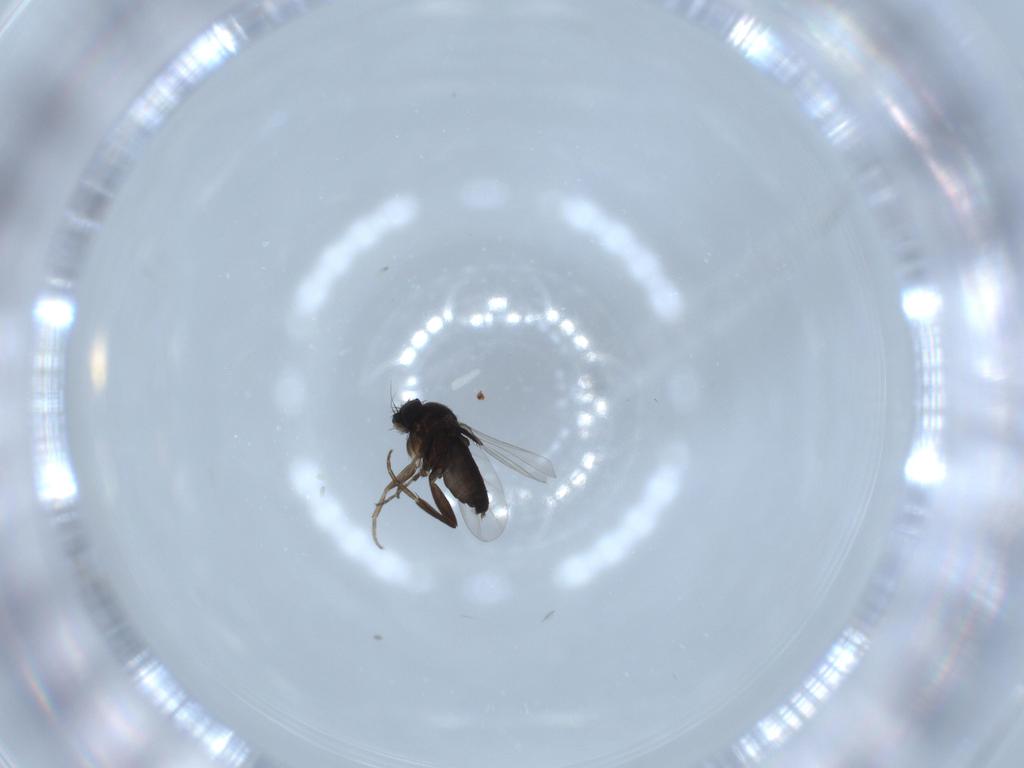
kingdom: Animalia
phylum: Arthropoda
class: Insecta
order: Diptera
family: Phoridae
